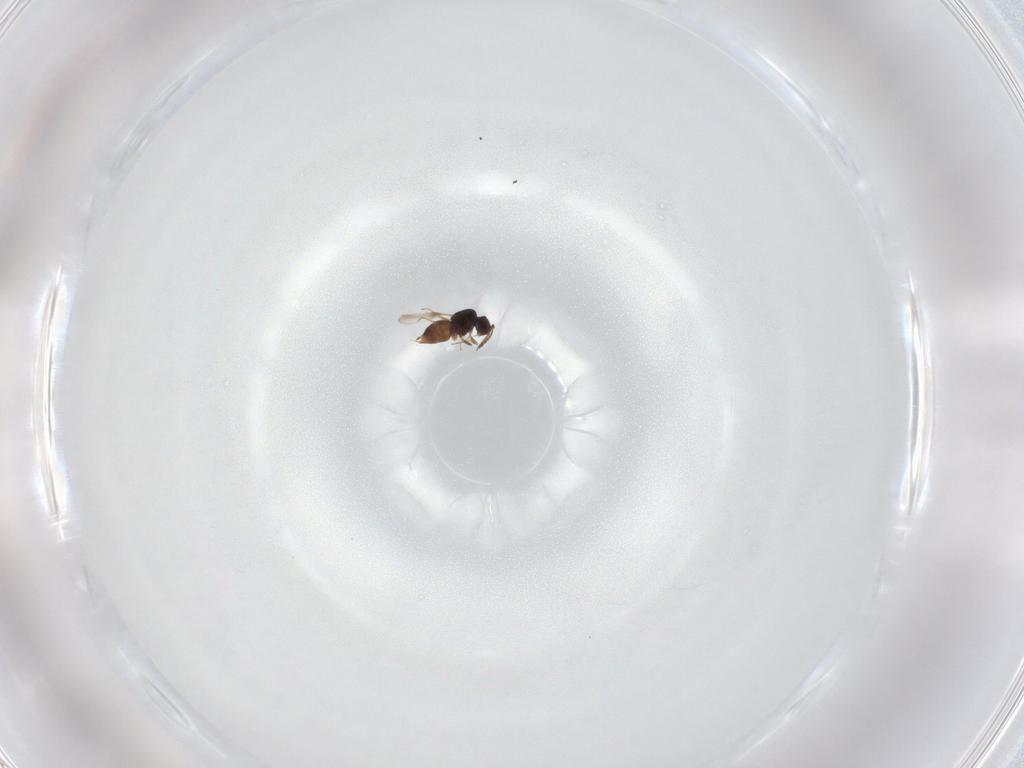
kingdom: Animalia
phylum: Arthropoda
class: Insecta
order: Hymenoptera
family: Ceraphronidae
